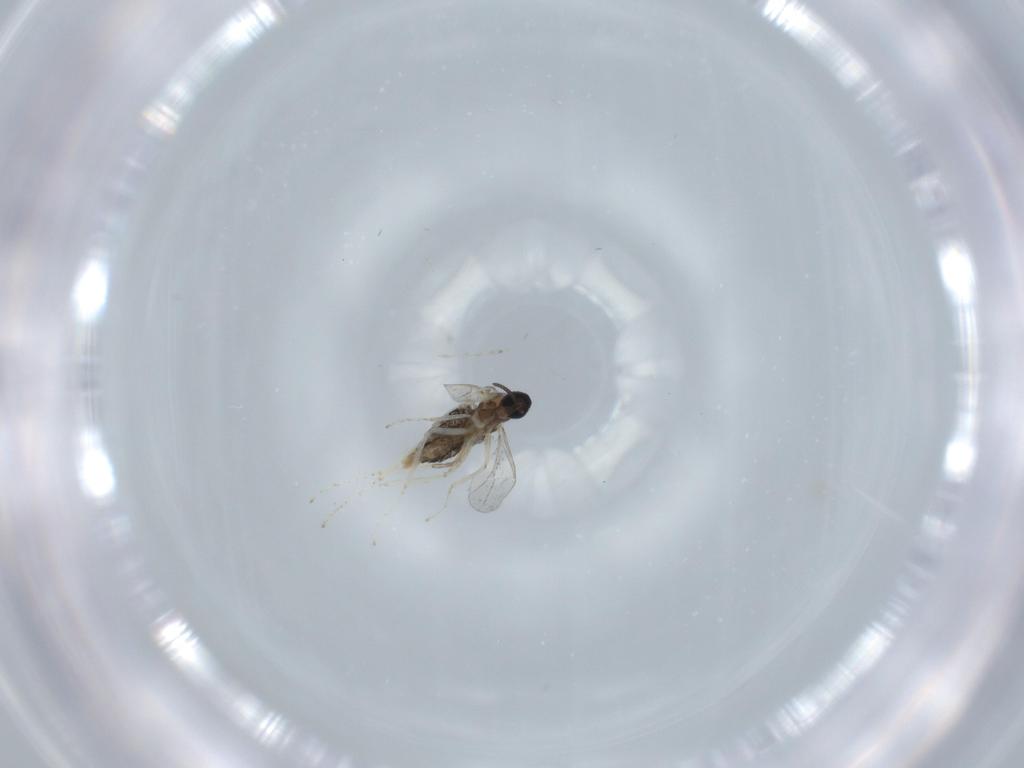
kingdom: Animalia
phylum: Arthropoda
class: Insecta
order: Diptera
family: Cecidomyiidae
